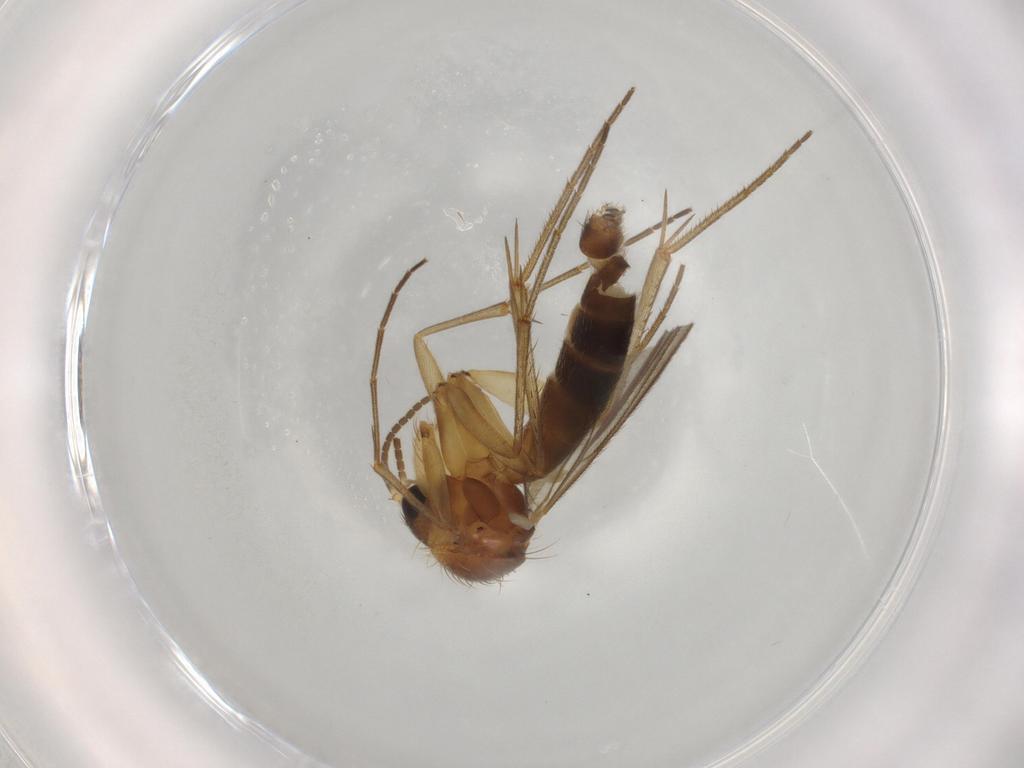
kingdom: Animalia
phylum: Arthropoda
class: Insecta
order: Diptera
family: Mycetophilidae
